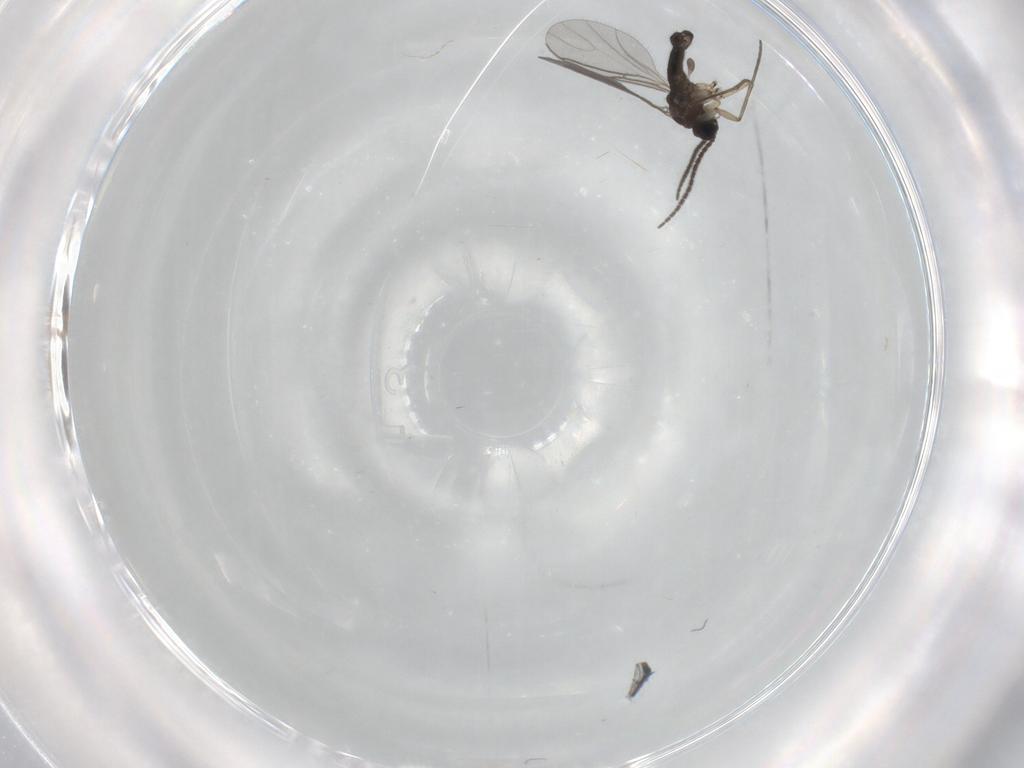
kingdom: Animalia
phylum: Arthropoda
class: Insecta
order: Diptera
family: Sciaridae
